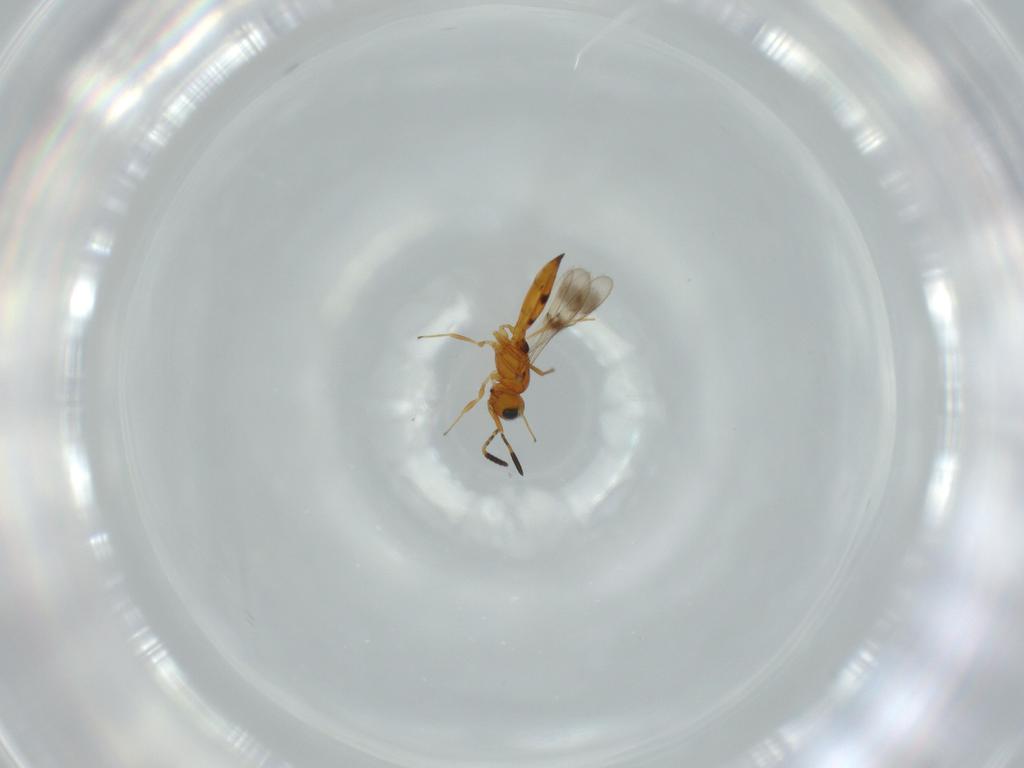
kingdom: Animalia
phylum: Arthropoda
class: Insecta
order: Hymenoptera
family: Scelionidae
